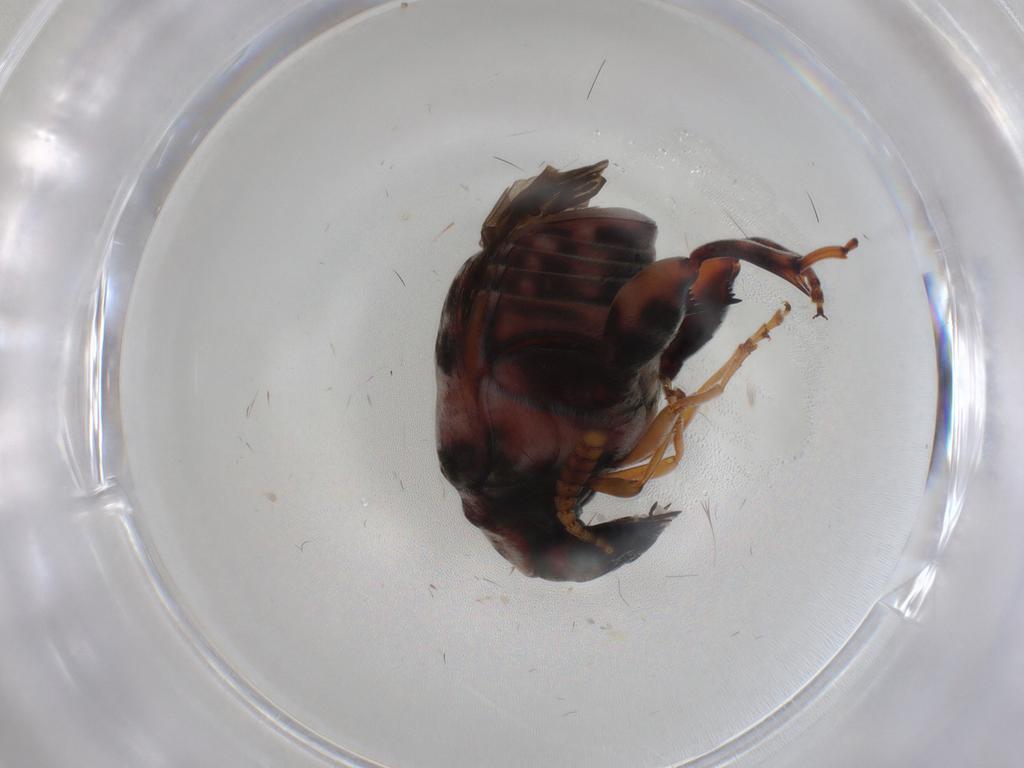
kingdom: Animalia
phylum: Arthropoda
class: Insecta
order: Coleoptera
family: Chrysomelidae
